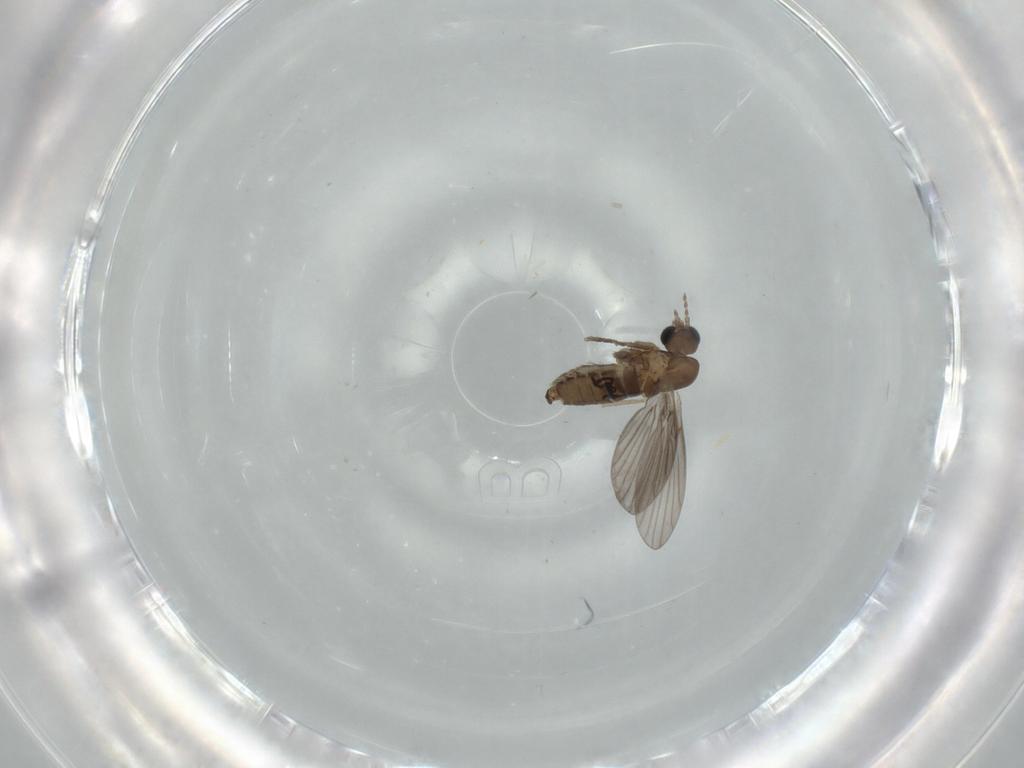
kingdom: Animalia
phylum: Arthropoda
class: Insecta
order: Diptera
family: Psychodidae
